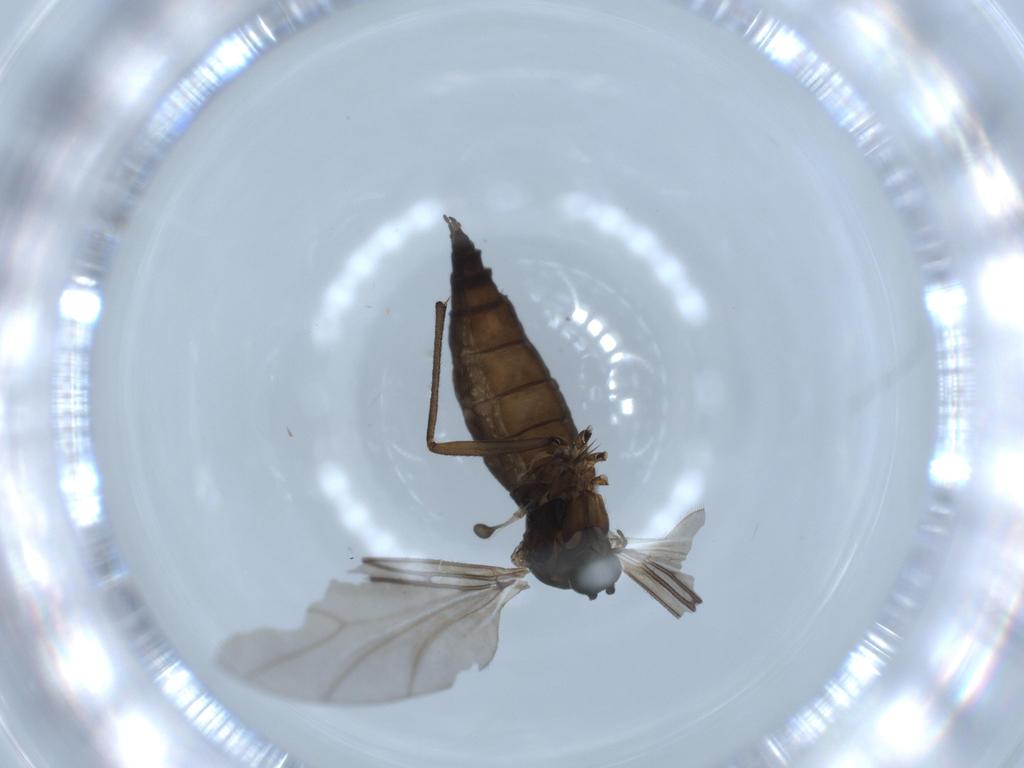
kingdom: Animalia
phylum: Arthropoda
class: Insecta
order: Diptera
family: Sciaridae
